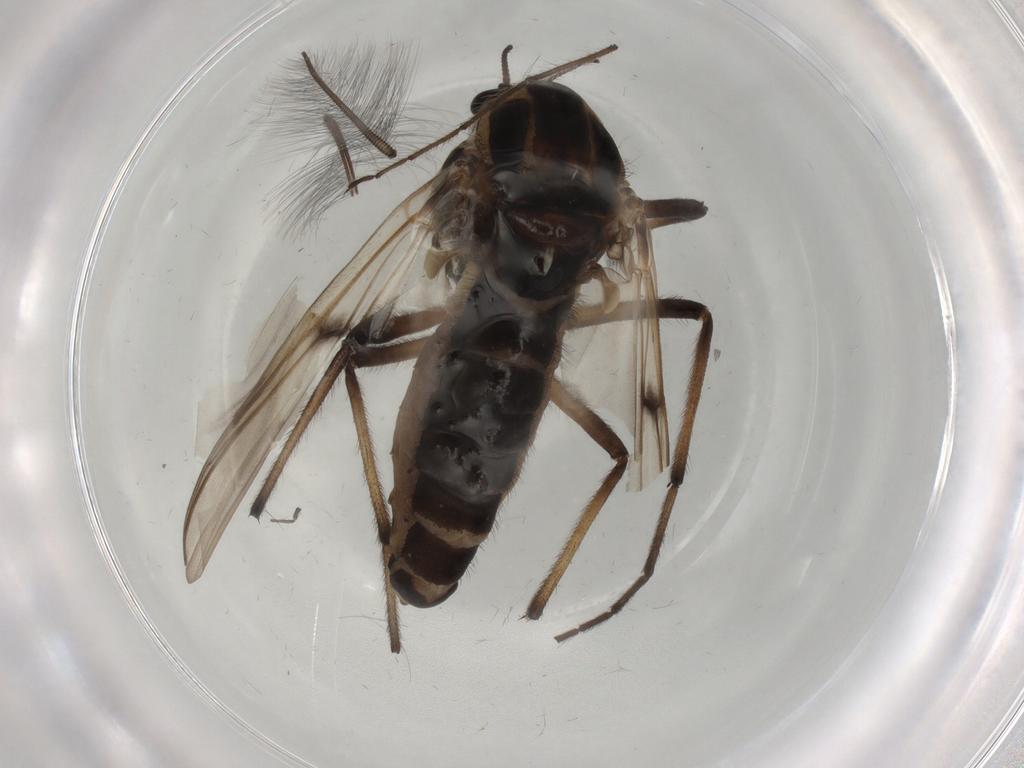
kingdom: Animalia
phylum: Arthropoda
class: Insecta
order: Diptera
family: Chironomidae
